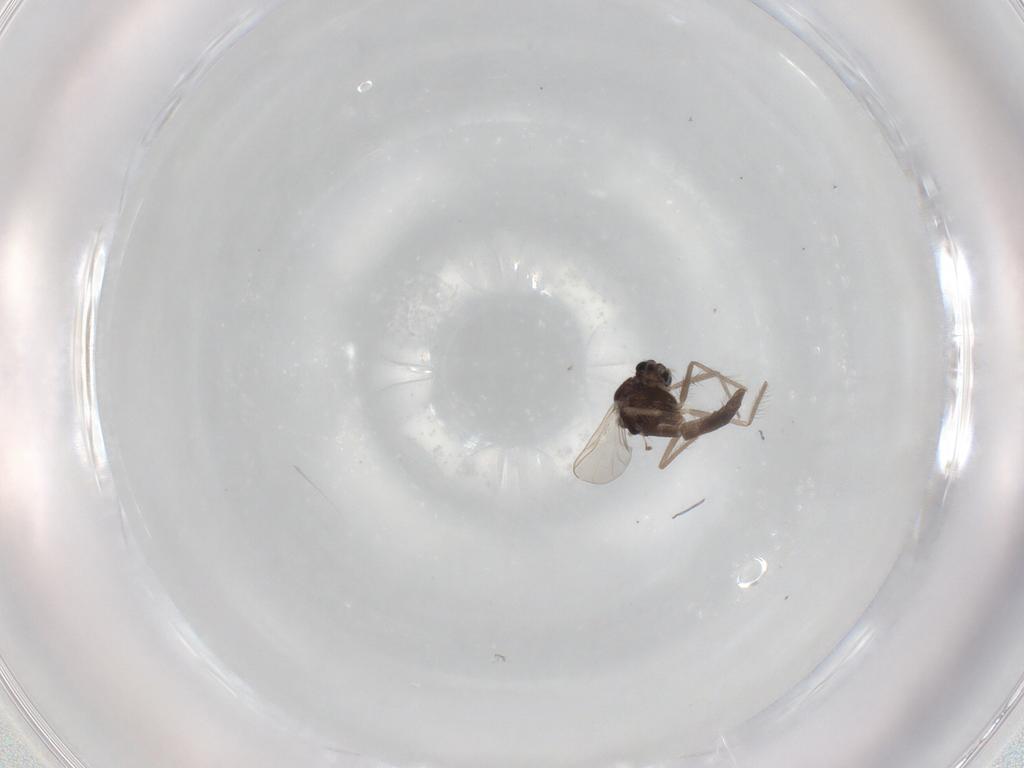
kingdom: Animalia
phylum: Arthropoda
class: Insecta
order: Diptera
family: Chironomidae
